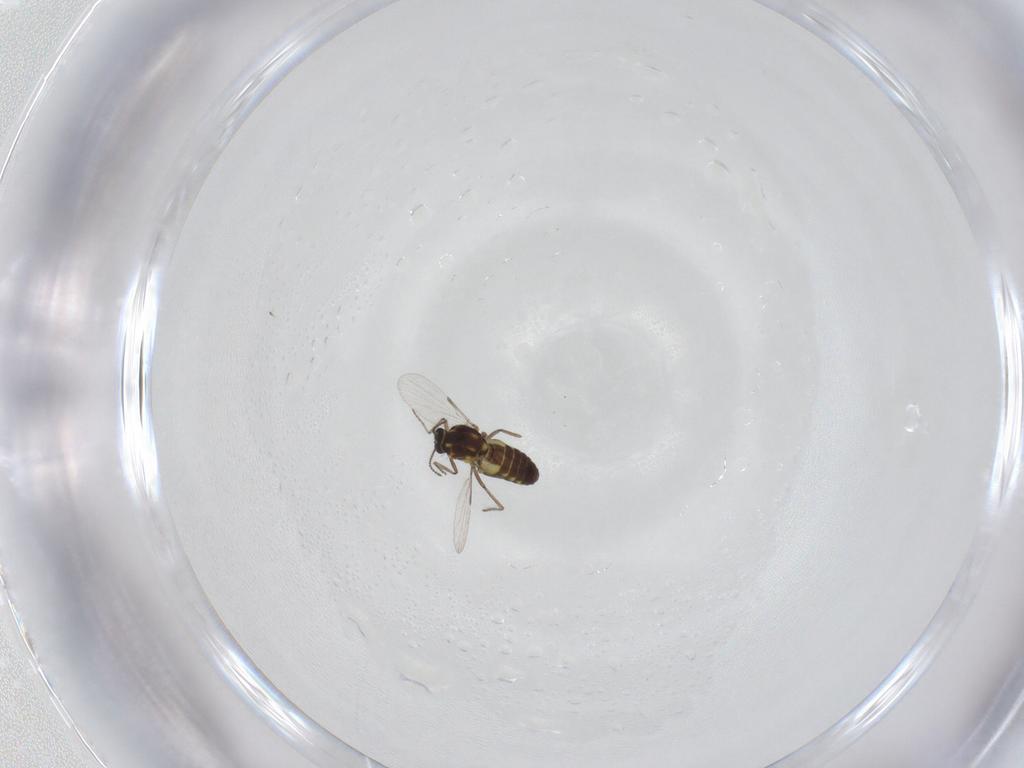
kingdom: Animalia
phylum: Arthropoda
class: Insecta
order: Diptera
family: Ceratopogonidae
